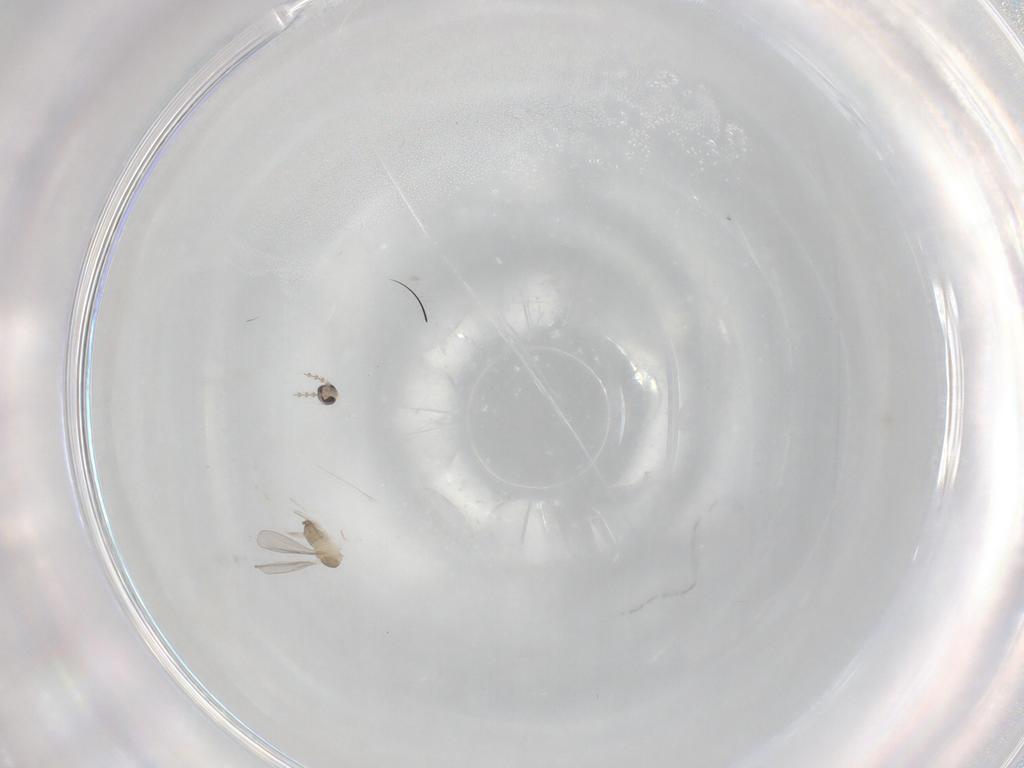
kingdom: Animalia
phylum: Arthropoda
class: Insecta
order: Diptera
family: Cecidomyiidae
